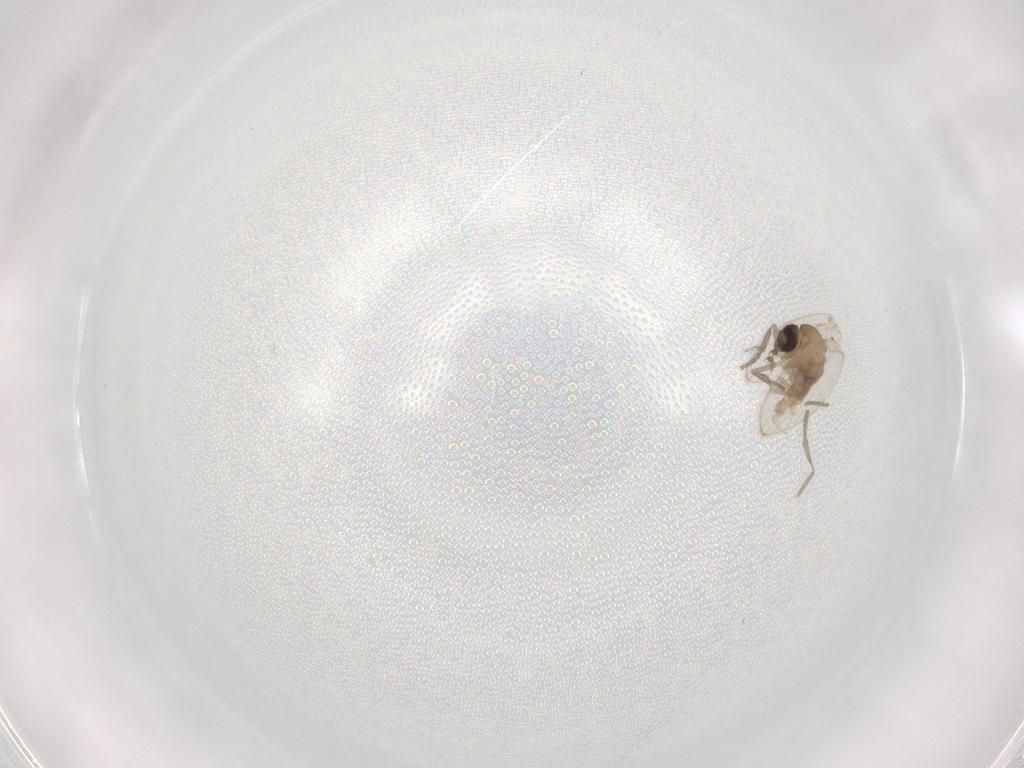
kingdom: Animalia
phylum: Arthropoda
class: Insecta
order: Diptera
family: Psychodidae
